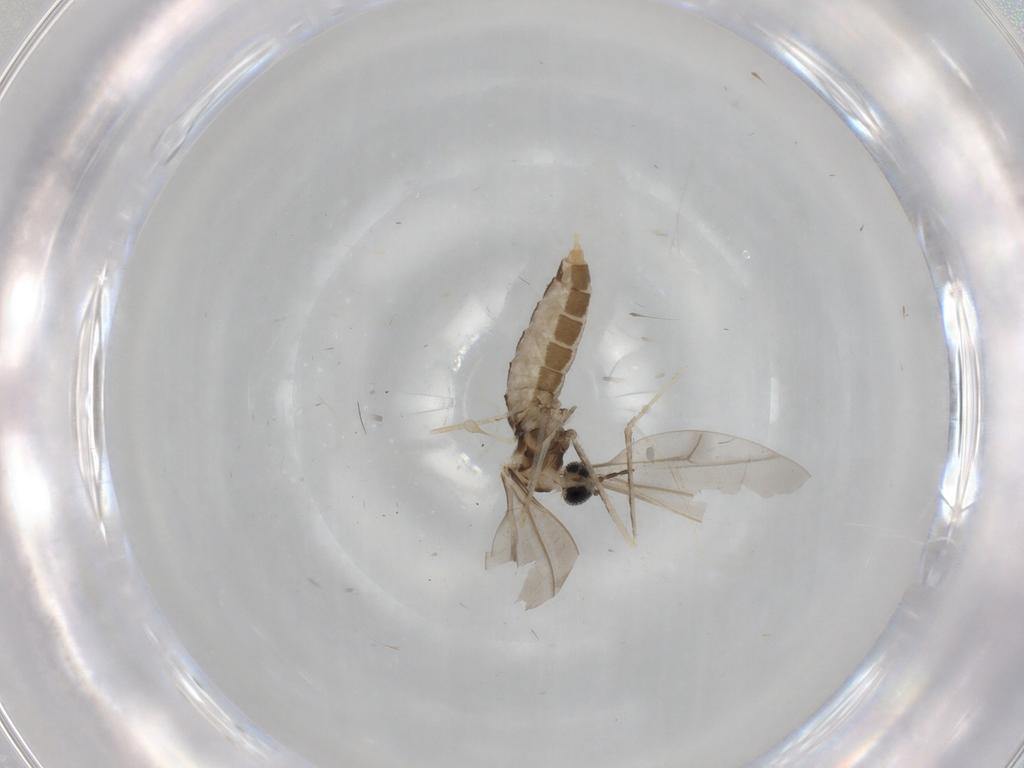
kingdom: Animalia
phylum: Arthropoda
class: Insecta
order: Diptera
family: Cecidomyiidae
